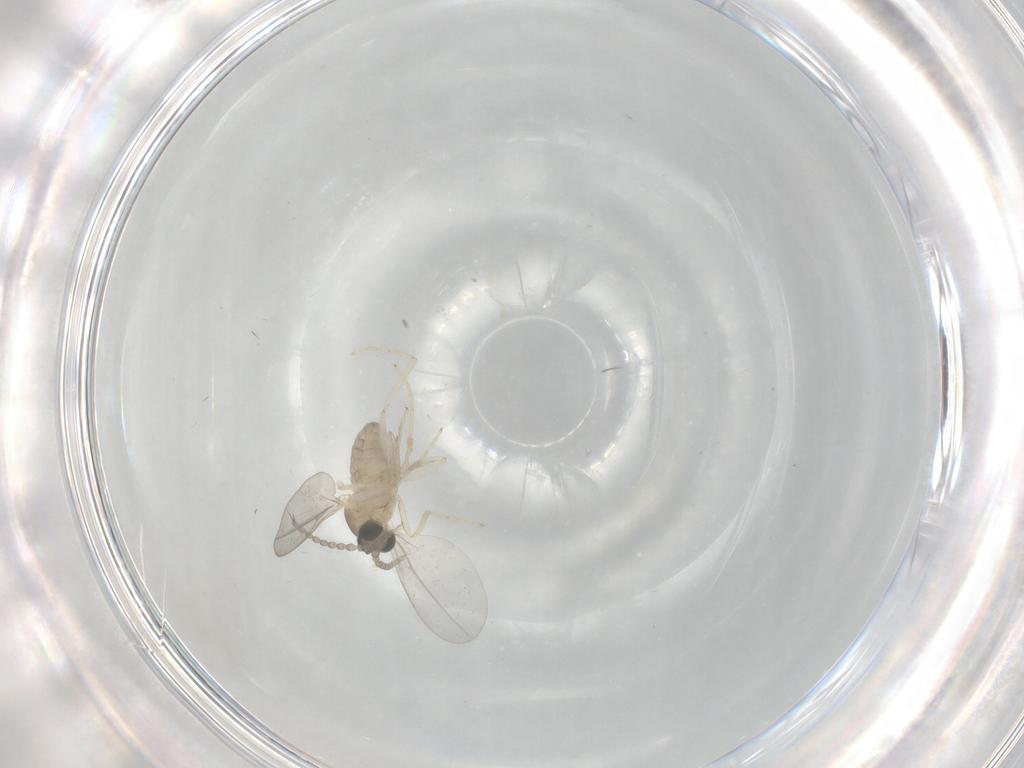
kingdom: Animalia
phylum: Arthropoda
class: Insecta
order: Diptera
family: Cecidomyiidae
